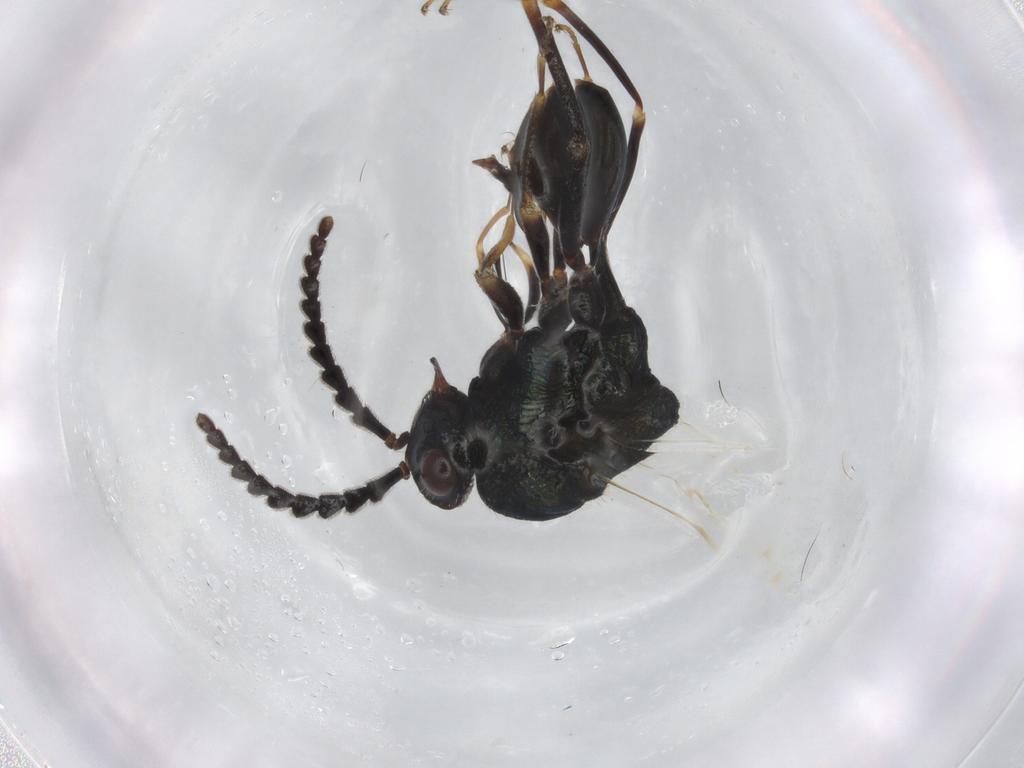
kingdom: Animalia
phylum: Arthropoda
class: Insecta
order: Hymenoptera
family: Eucharitidae
